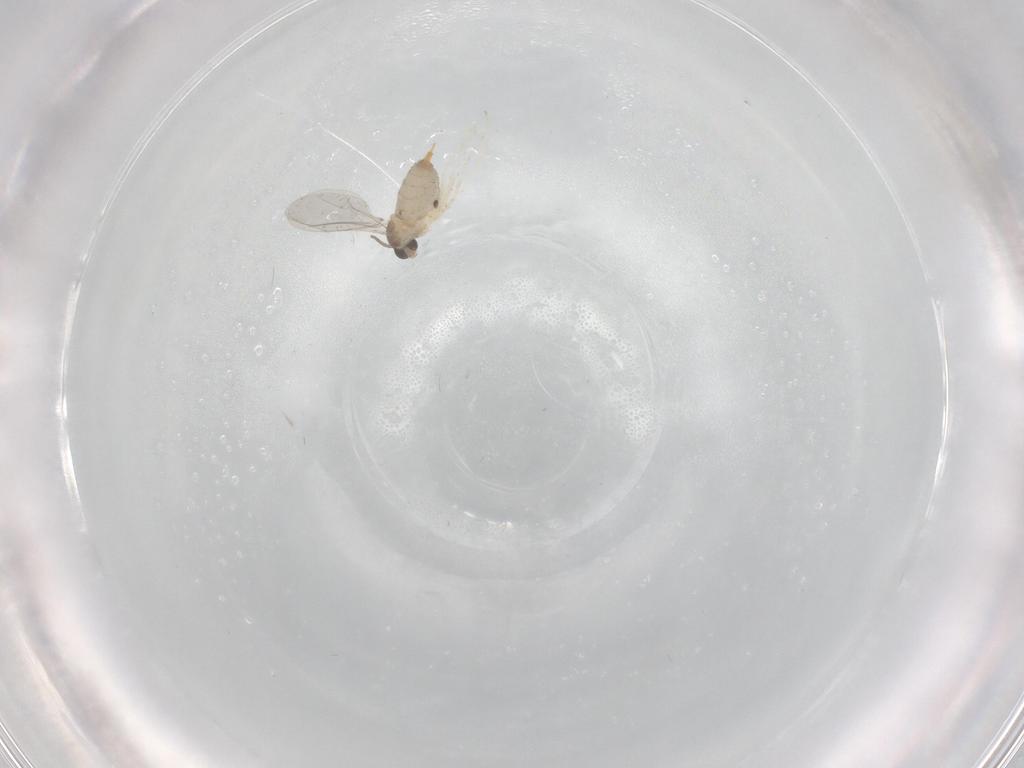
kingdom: Animalia
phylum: Arthropoda
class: Insecta
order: Diptera
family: Cecidomyiidae
